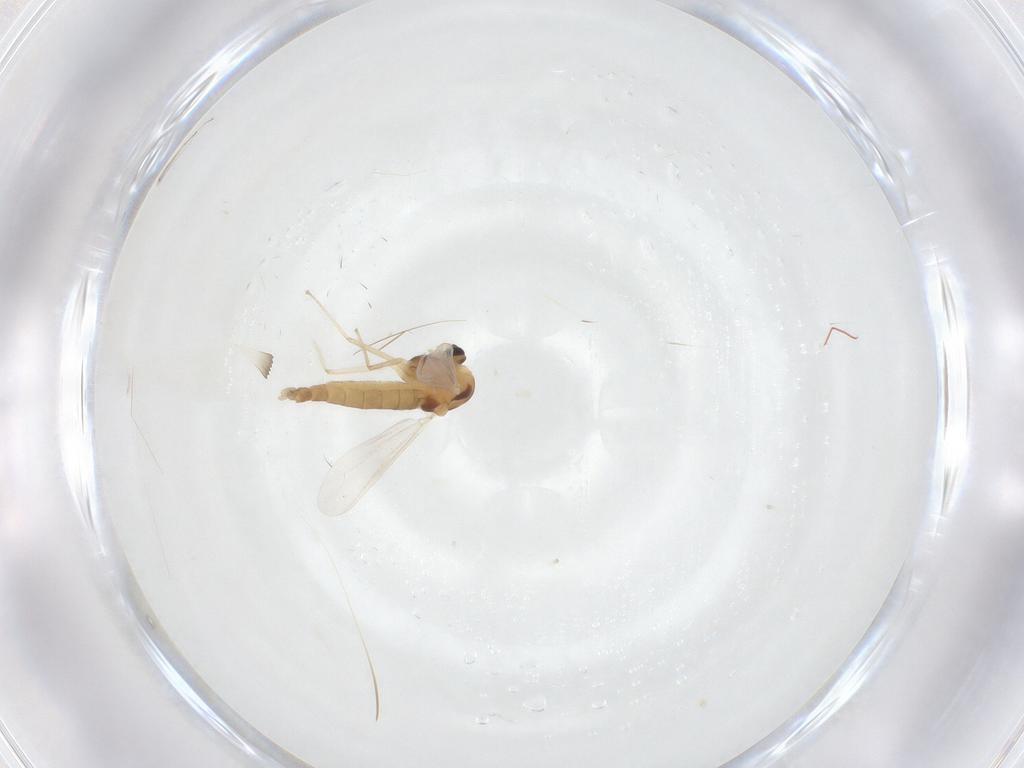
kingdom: Animalia
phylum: Arthropoda
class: Insecta
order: Diptera
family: Chironomidae
